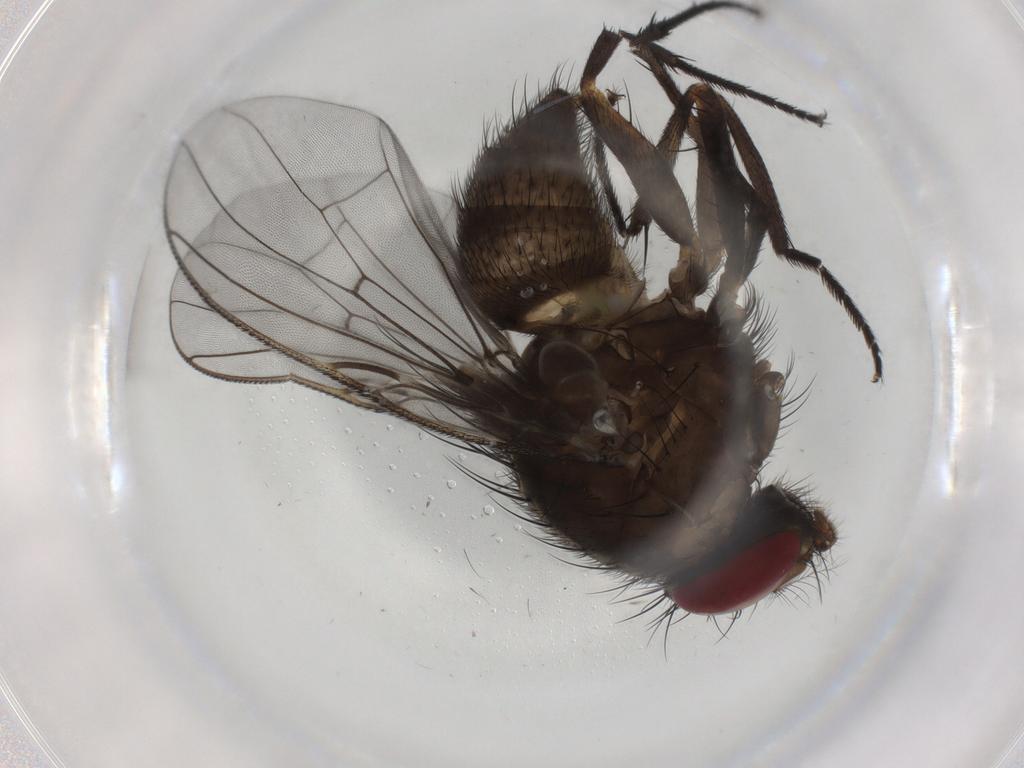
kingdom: Animalia
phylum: Arthropoda
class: Insecta
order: Diptera
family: Muscidae
